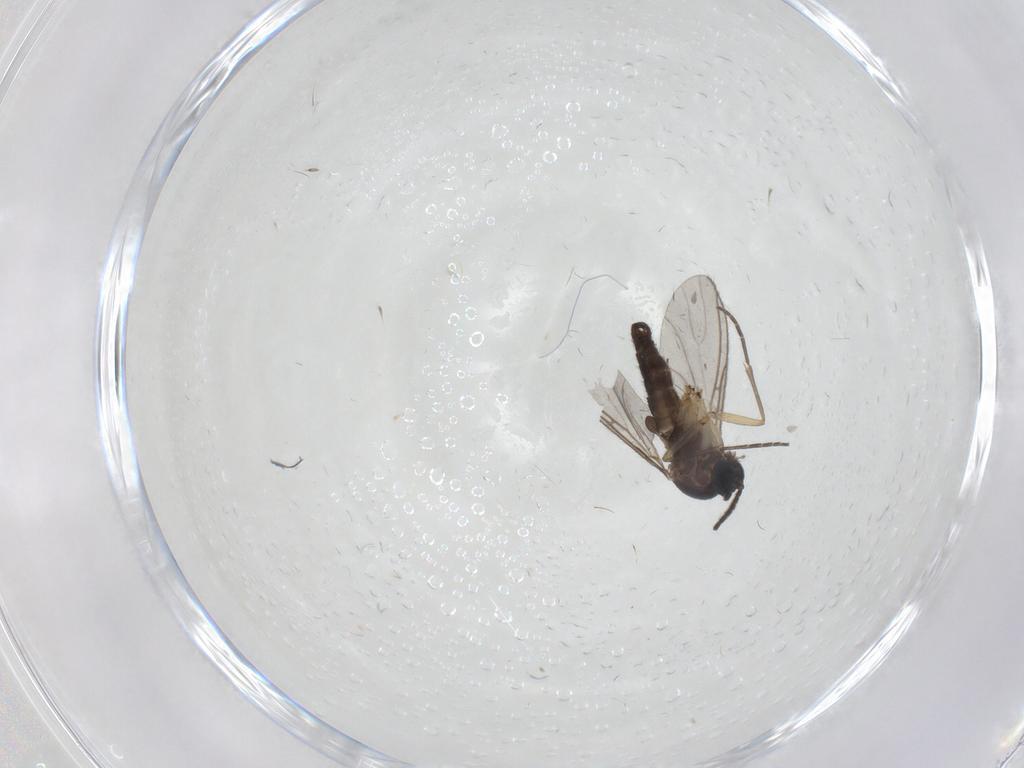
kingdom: Animalia
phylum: Arthropoda
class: Insecta
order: Diptera
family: Sciaridae
